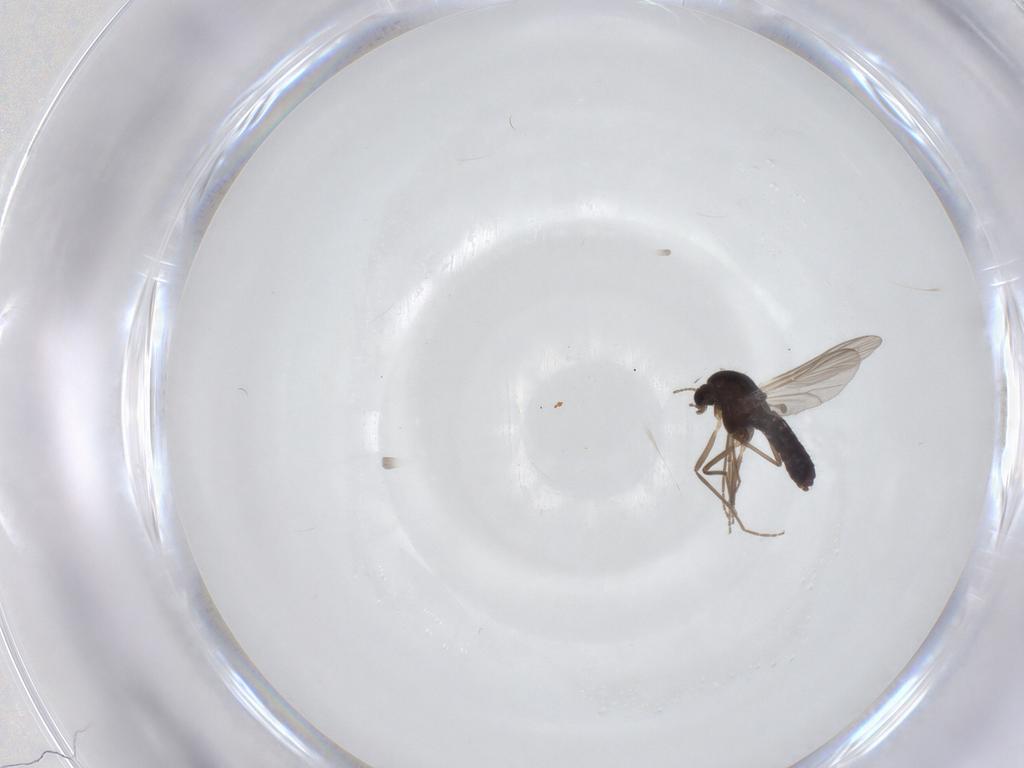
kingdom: Animalia
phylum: Arthropoda
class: Insecta
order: Diptera
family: Chironomidae
